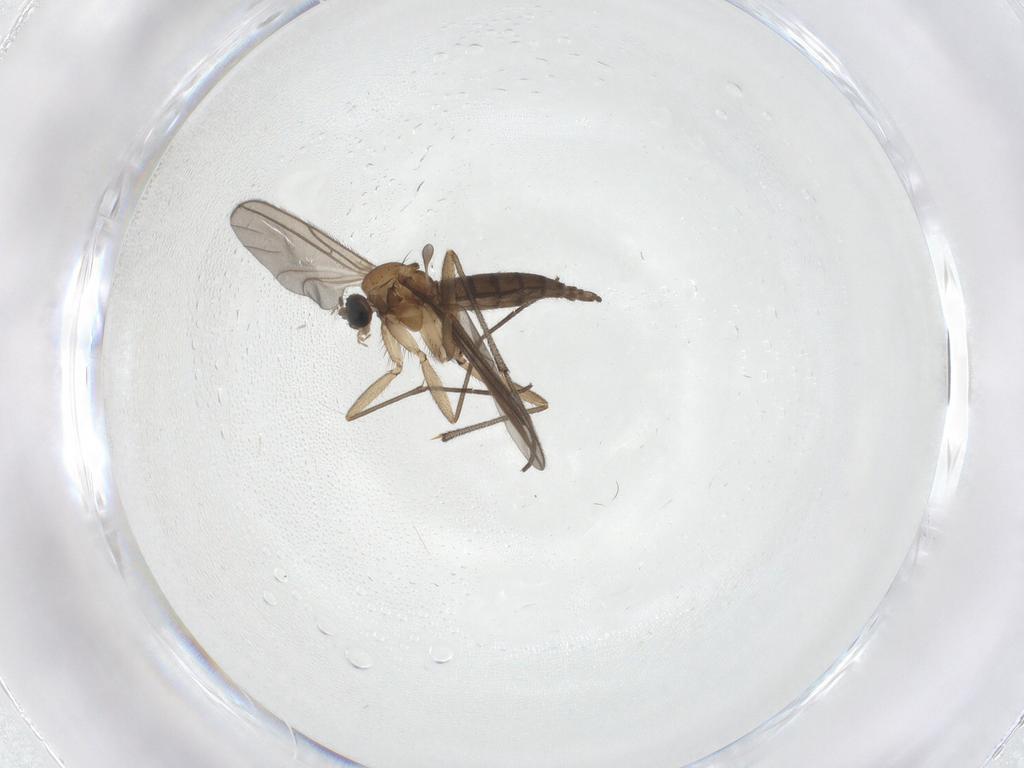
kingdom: Animalia
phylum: Arthropoda
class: Insecta
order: Diptera
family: Sciaridae
